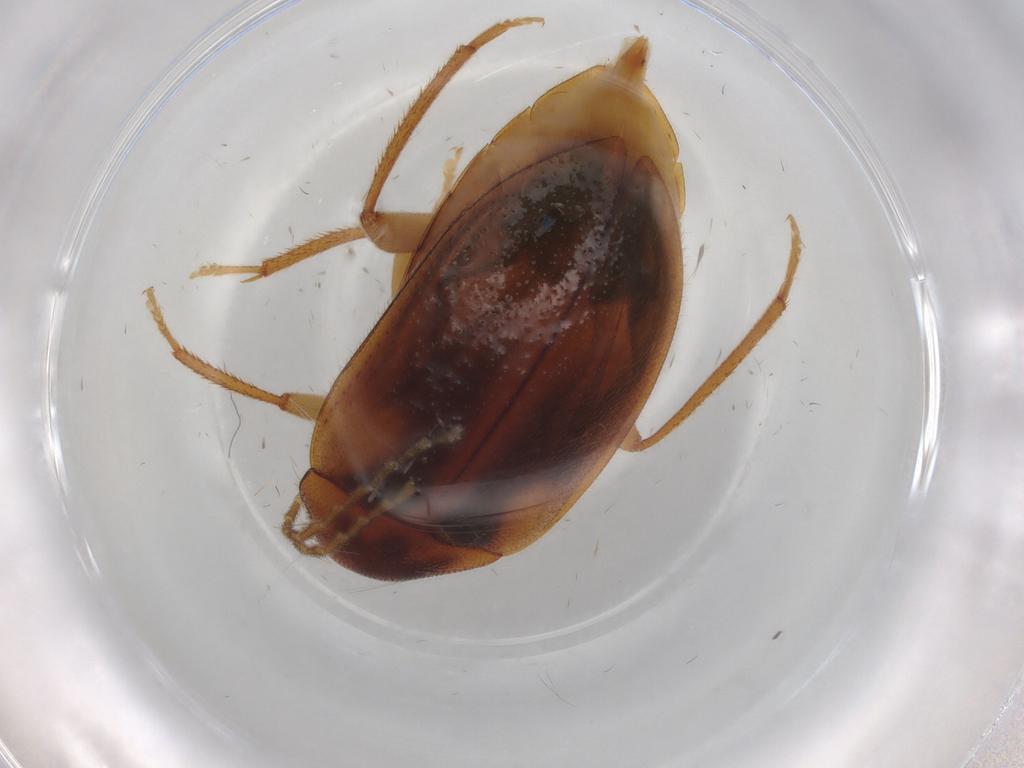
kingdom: Animalia
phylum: Arthropoda
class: Insecta
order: Coleoptera
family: Ptilodactylidae
